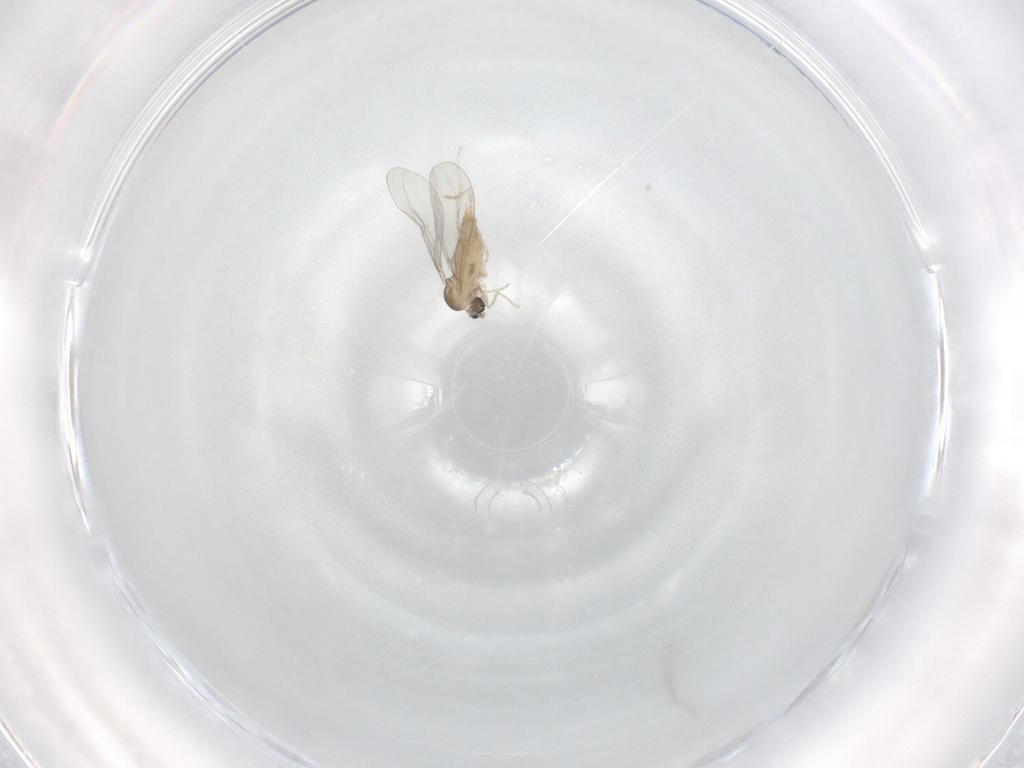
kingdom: Animalia
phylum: Arthropoda
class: Insecta
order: Diptera
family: Cecidomyiidae
